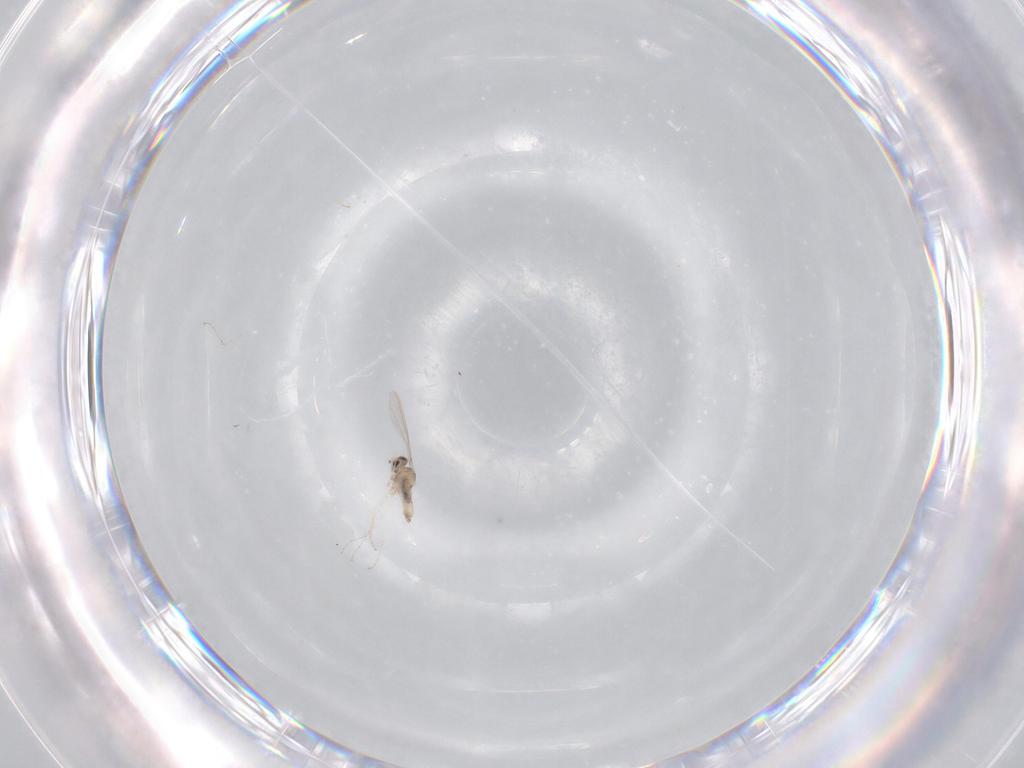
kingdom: Animalia
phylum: Arthropoda
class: Insecta
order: Diptera
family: Cecidomyiidae
